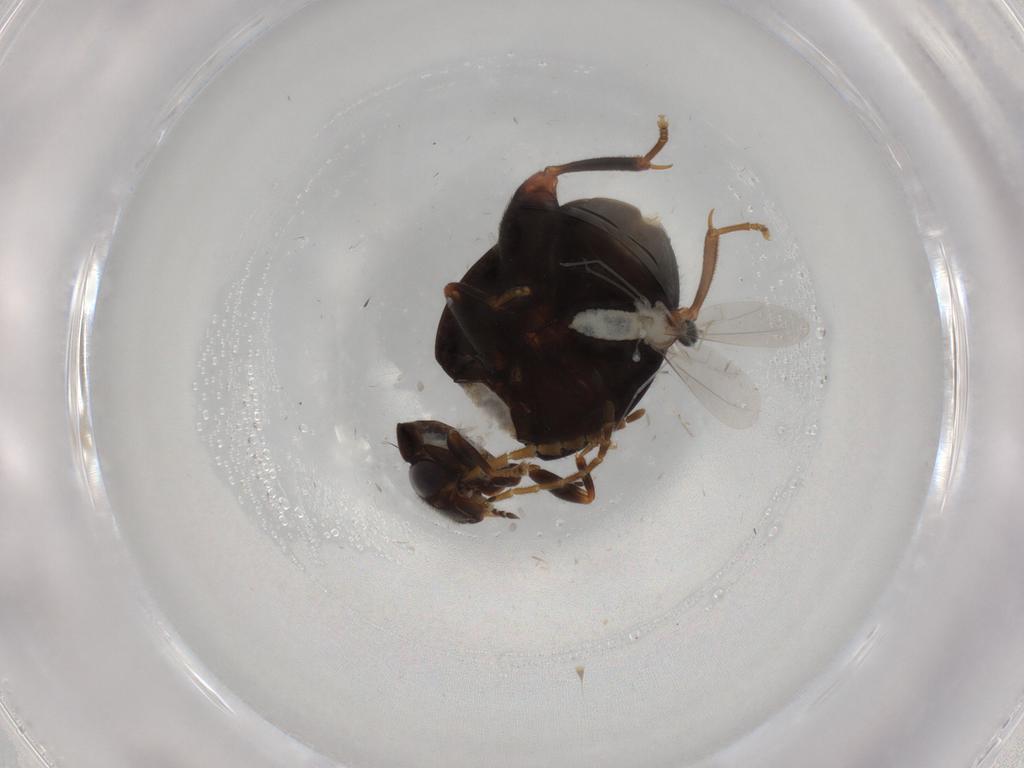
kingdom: Animalia
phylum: Arthropoda
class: Insecta
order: Coleoptera
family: Scirtidae
